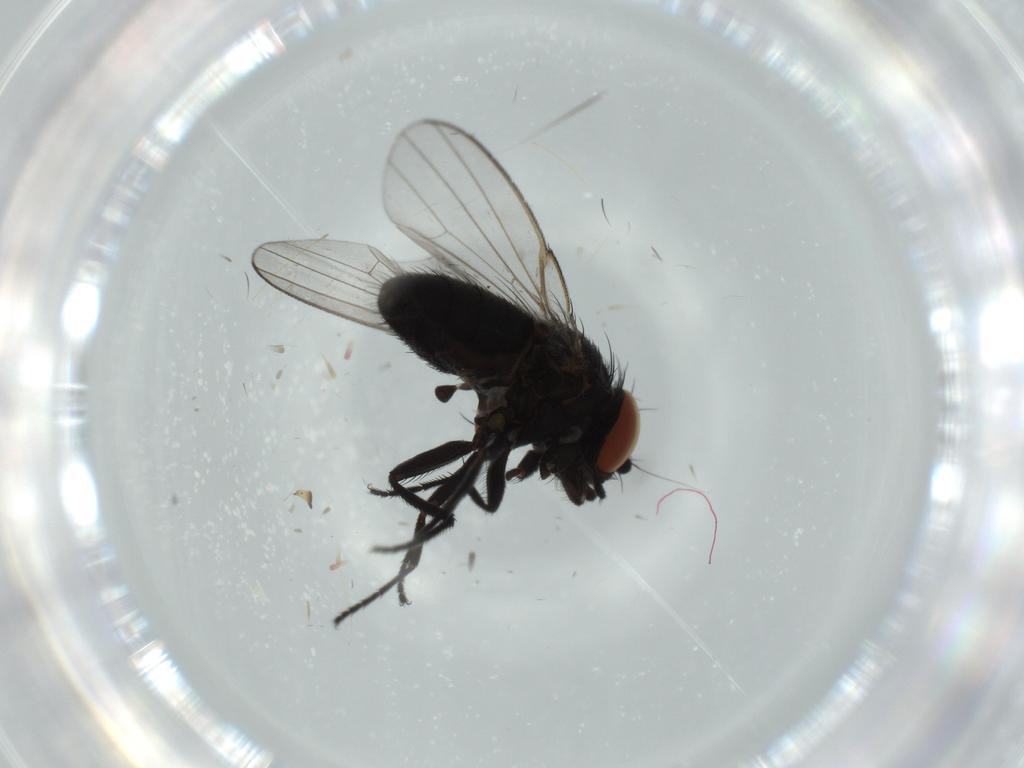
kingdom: Animalia
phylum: Arthropoda
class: Insecta
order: Diptera
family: Milichiidae
